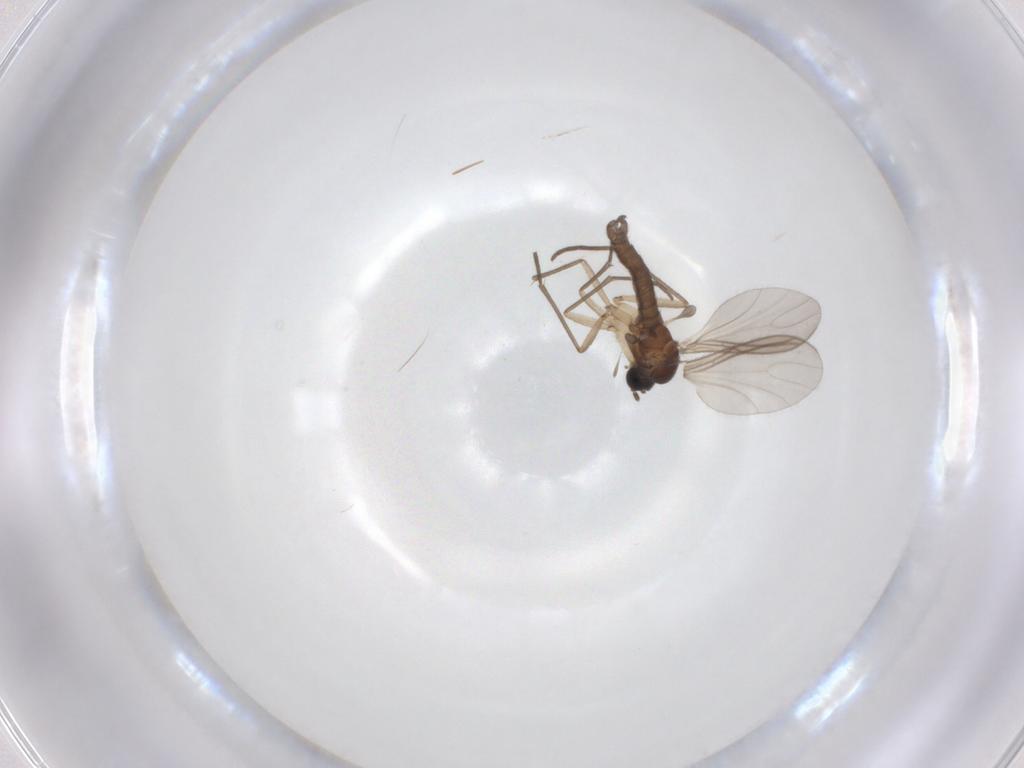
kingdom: Animalia
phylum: Arthropoda
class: Insecta
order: Diptera
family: Sciaridae
